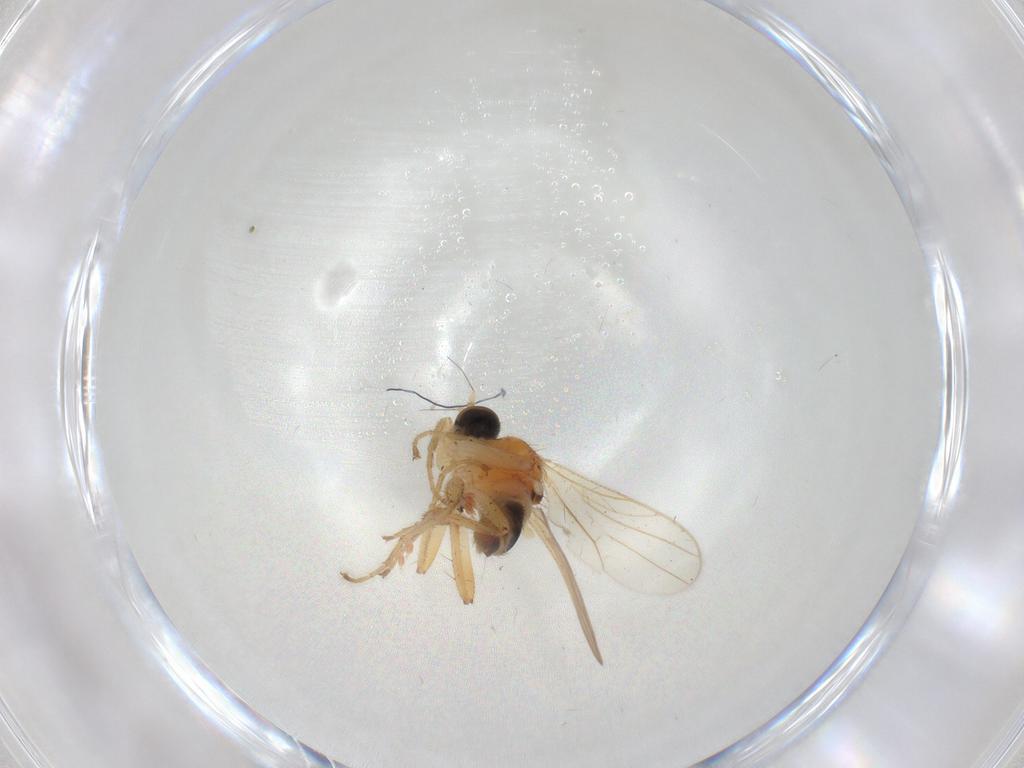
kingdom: Animalia
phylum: Arthropoda
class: Insecta
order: Diptera
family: Hybotidae
